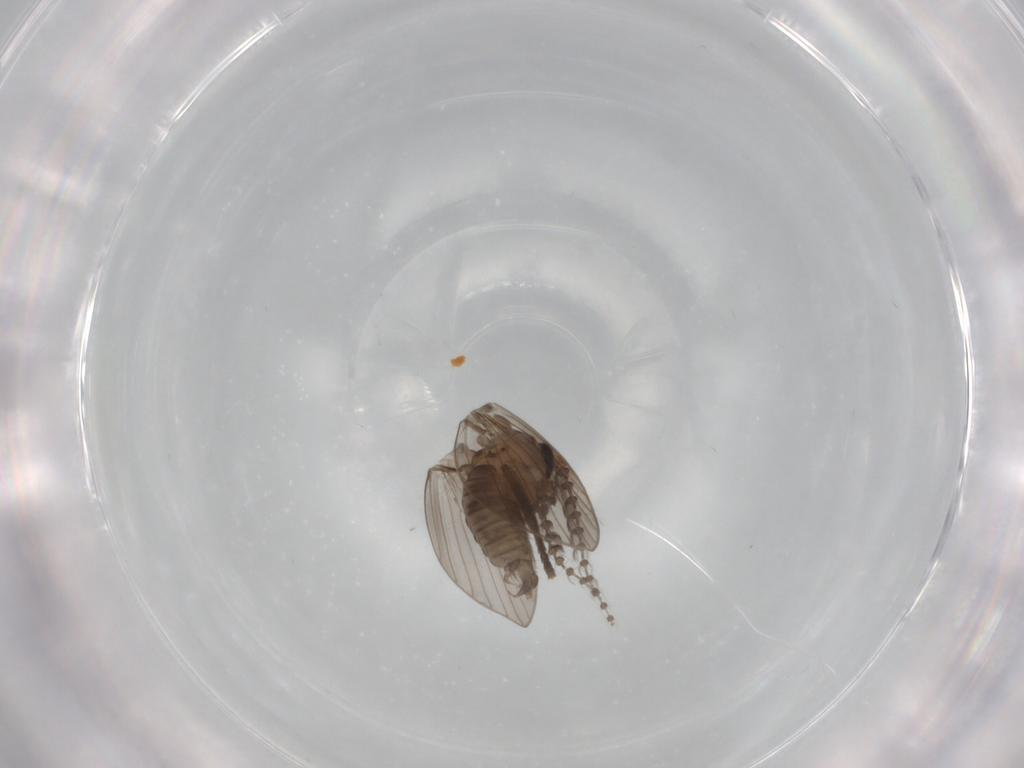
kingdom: Animalia
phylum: Arthropoda
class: Insecta
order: Diptera
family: Psychodidae
